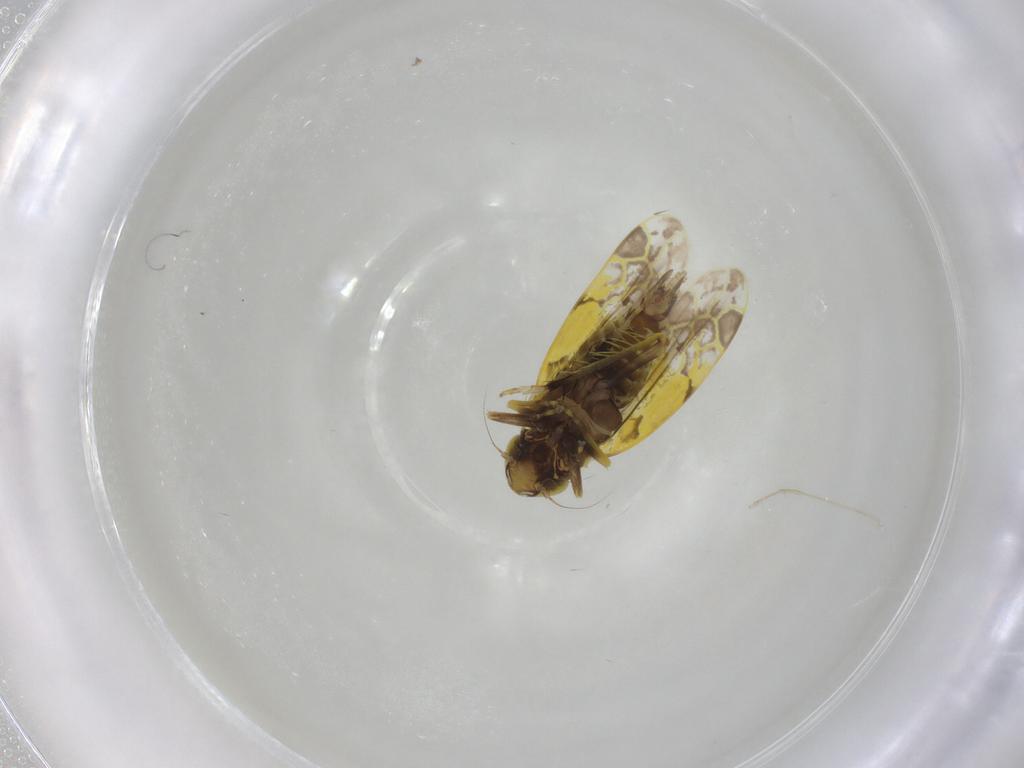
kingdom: Animalia
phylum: Arthropoda
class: Insecta
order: Hemiptera
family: Cicadellidae
